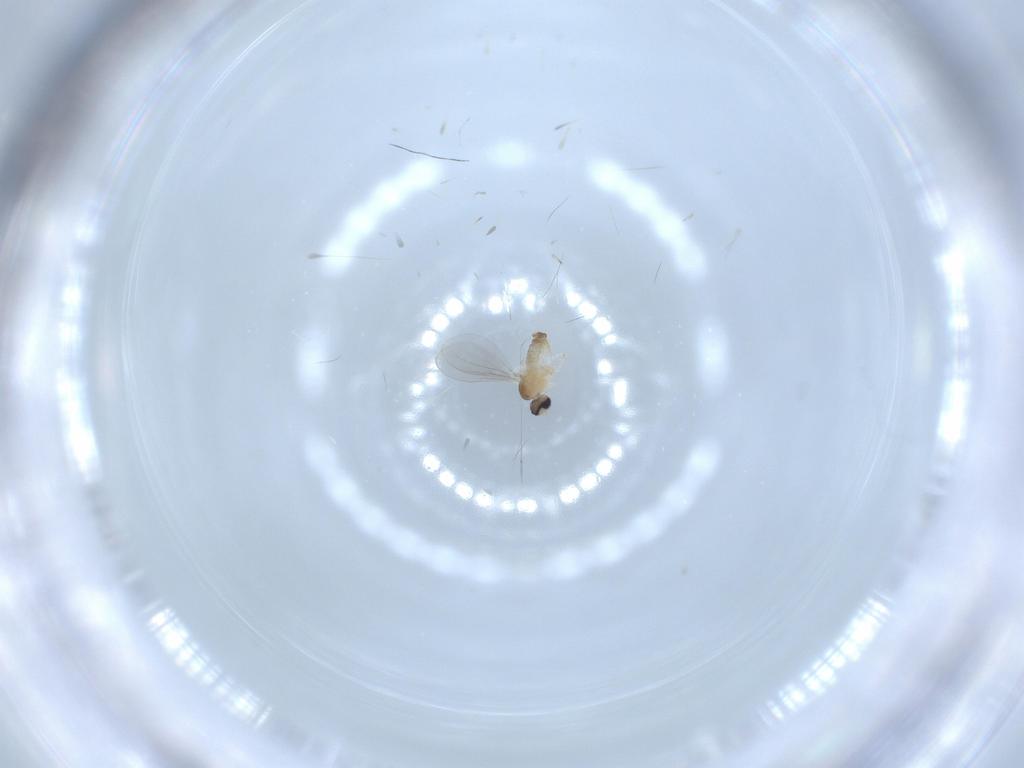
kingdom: Animalia
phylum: Arthropoda
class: Insecta
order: Diptera
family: Cecidomyiidae
